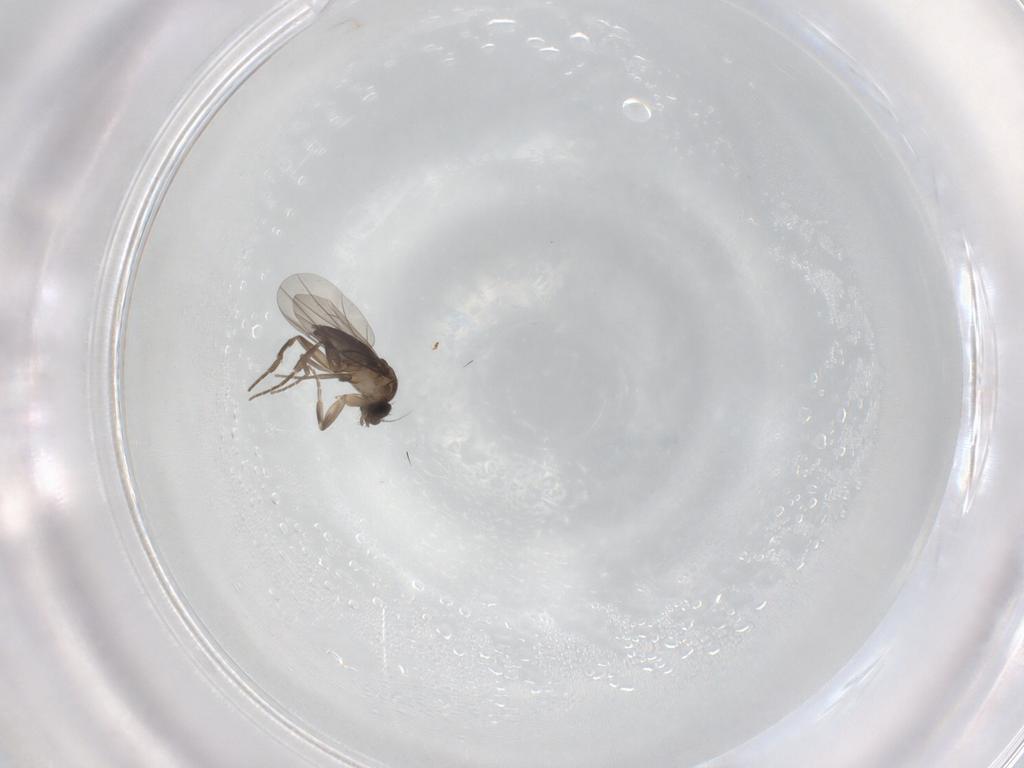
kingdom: Animalia
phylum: Arthropoda
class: Insecta
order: Diptera
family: Phoridae
